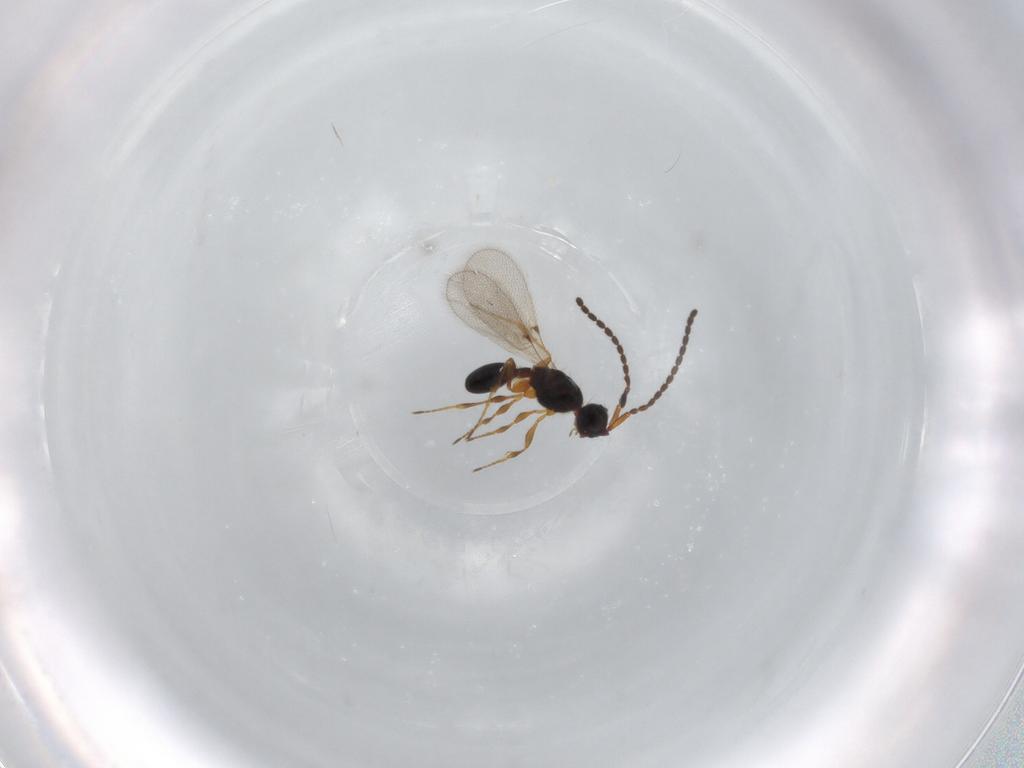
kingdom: Animalia
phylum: Arthropoda
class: Insecta
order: Hymenoptera
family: Diapriidae
